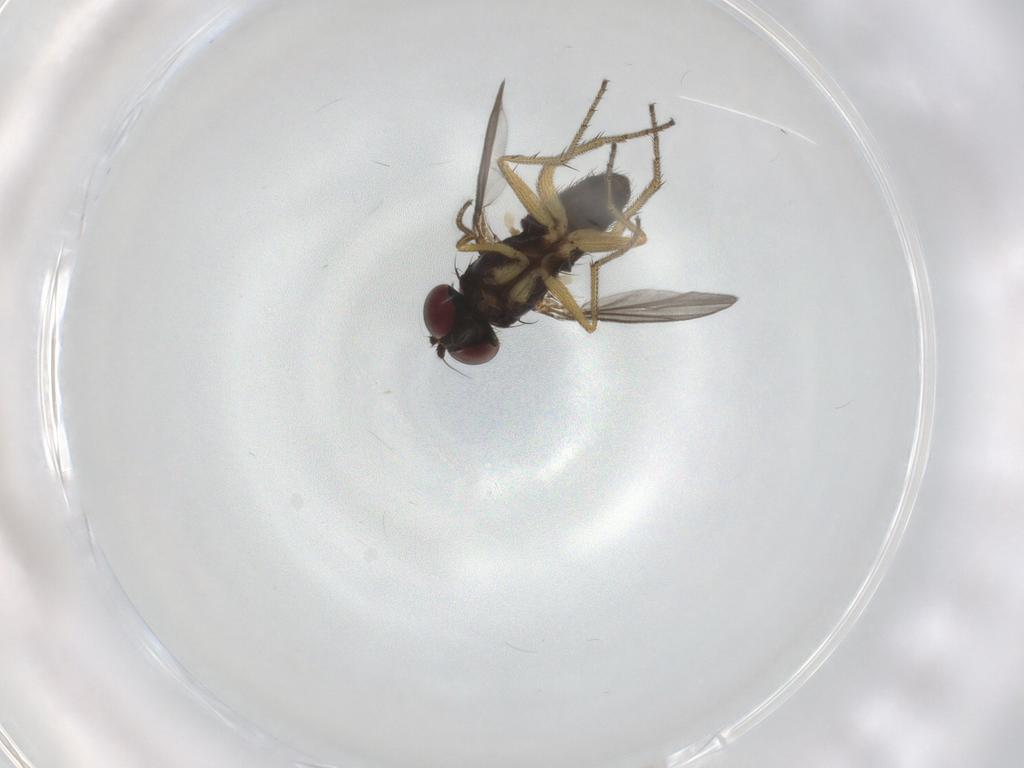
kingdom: Animalia
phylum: Arthropoda
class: Insecta
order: Diptera
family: Dolichopodidae
